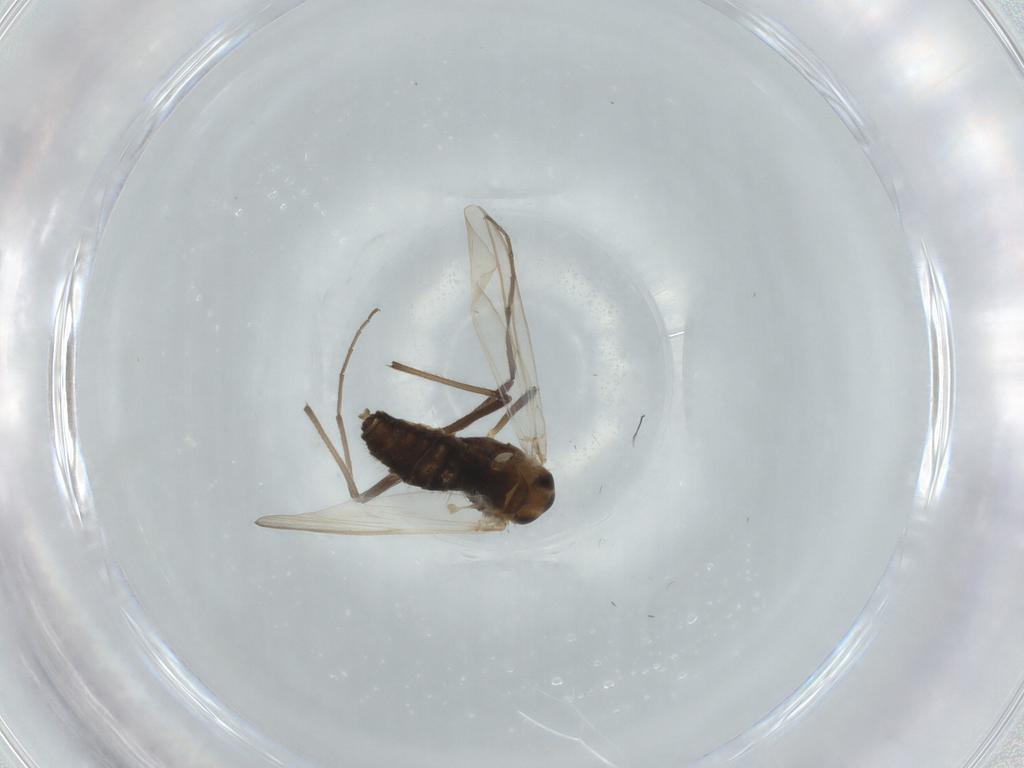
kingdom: Animalia
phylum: Arthropoda
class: Insecta
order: Diptera
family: Chironomidae
